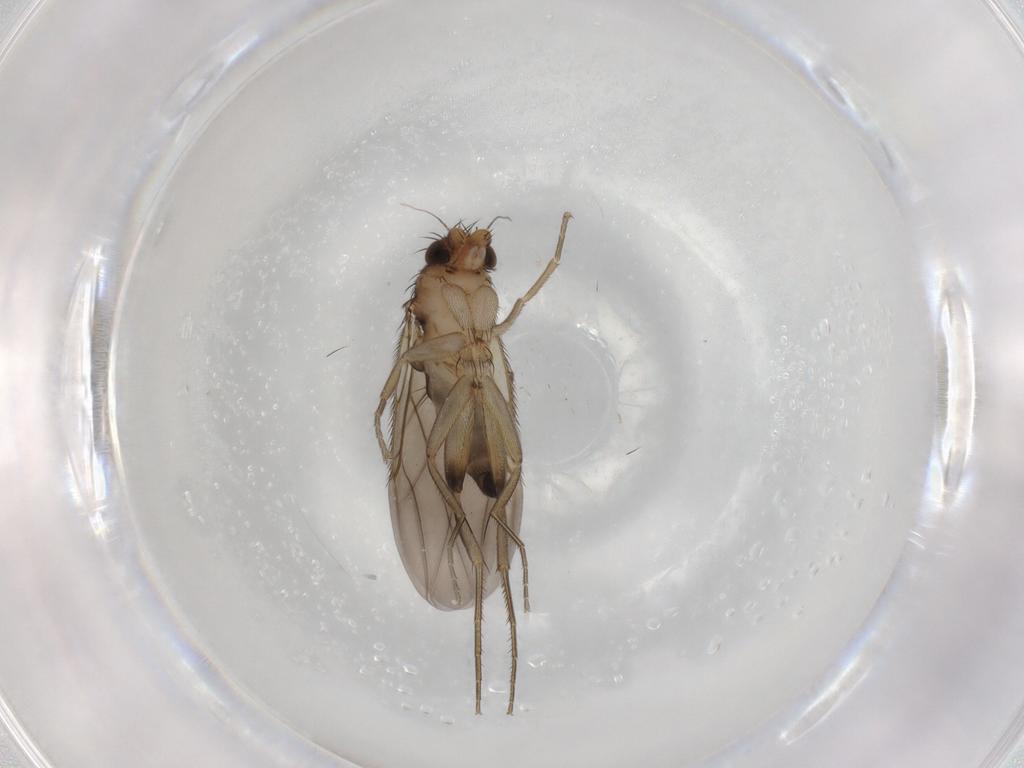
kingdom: Animalia
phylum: Arthropoda
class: Insecta
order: Diptera
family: Phoridae
